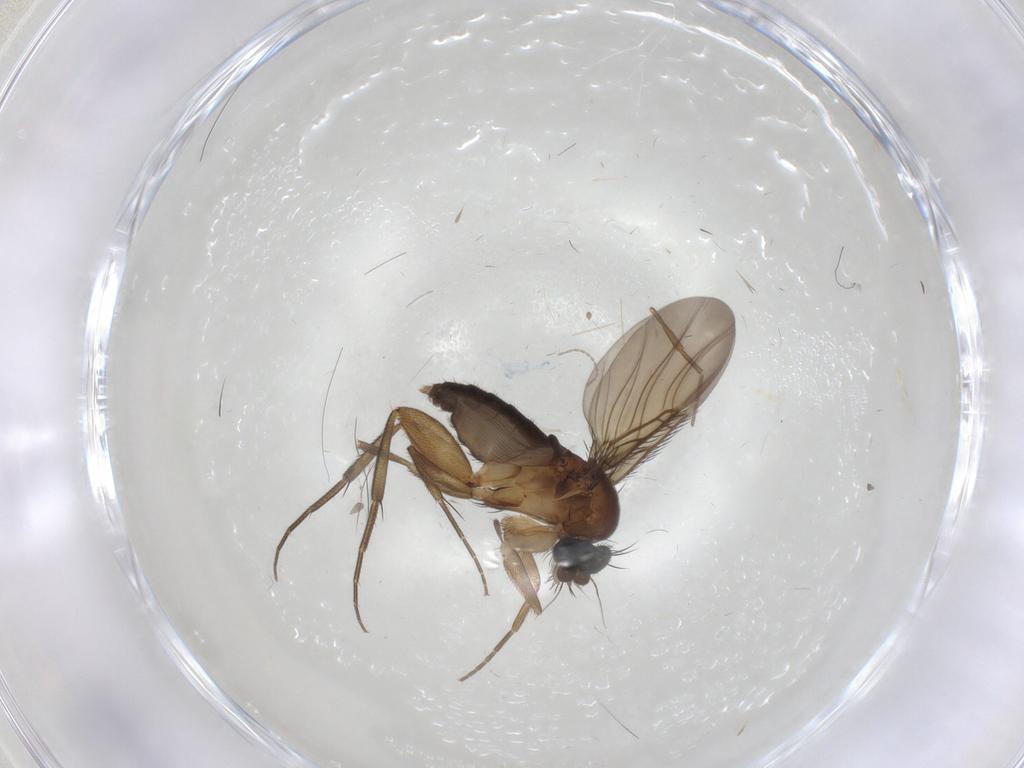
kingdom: Animalia
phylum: Arthropoda
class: Insecta
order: Diptera
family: Phoridae
